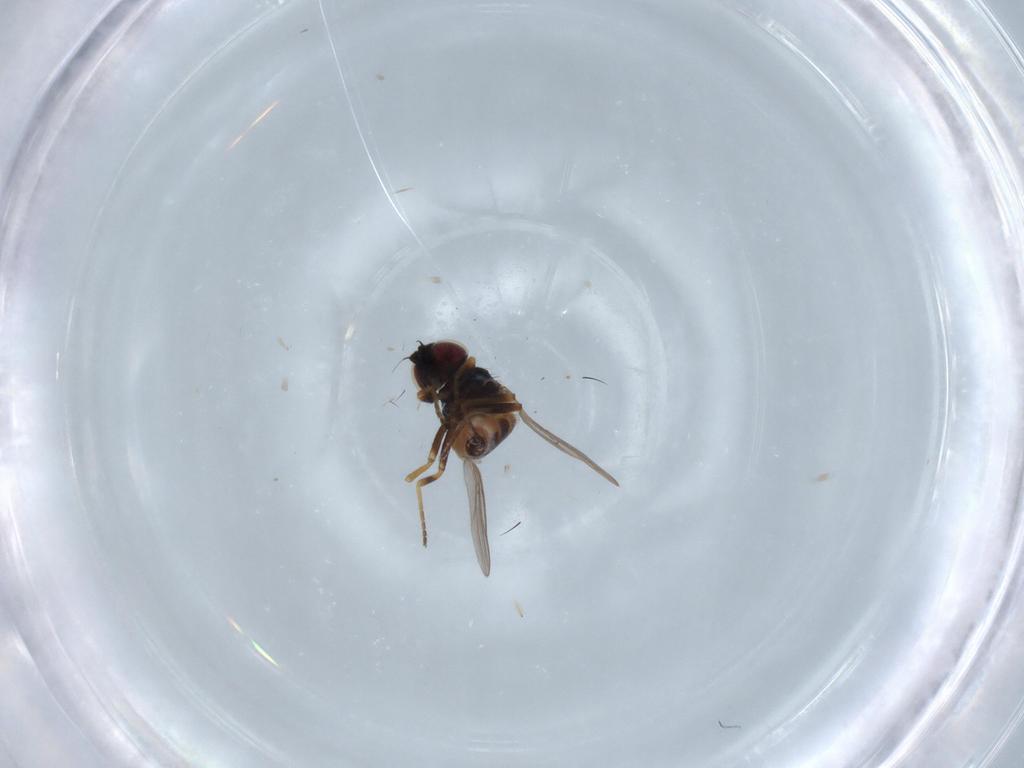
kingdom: Animalia
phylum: Arthropoda
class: Insecta
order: Diptera
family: Chloropidae
